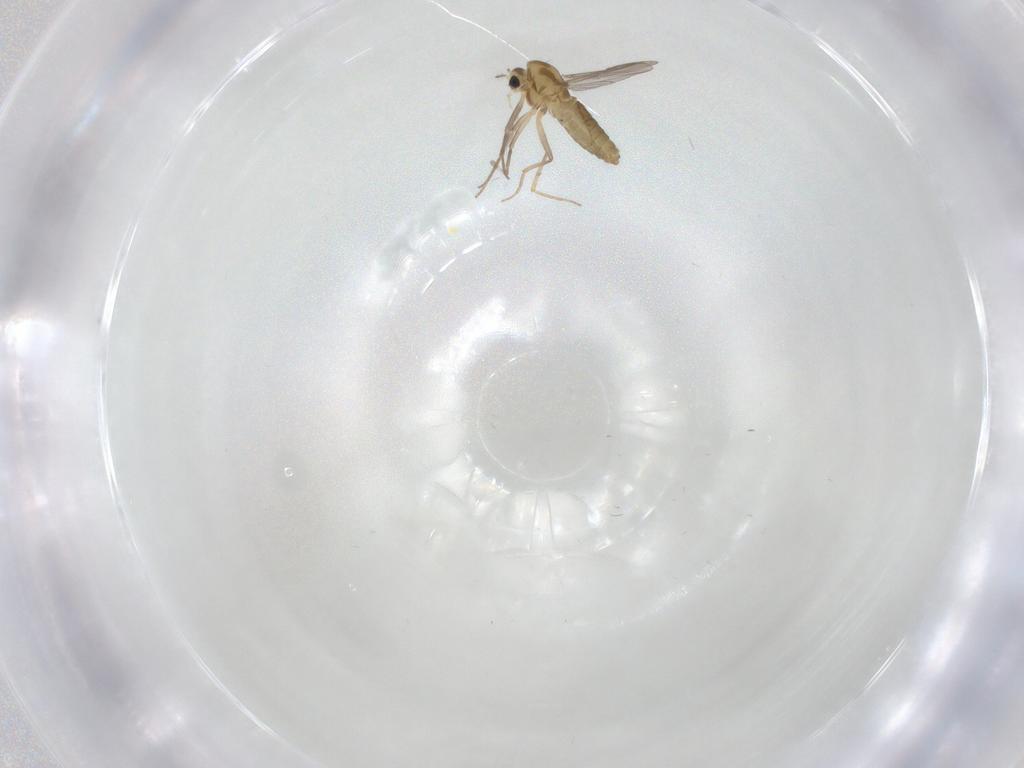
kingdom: Animalia
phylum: Arthropoda
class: Insecta
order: Diptera
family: Chironomidae
